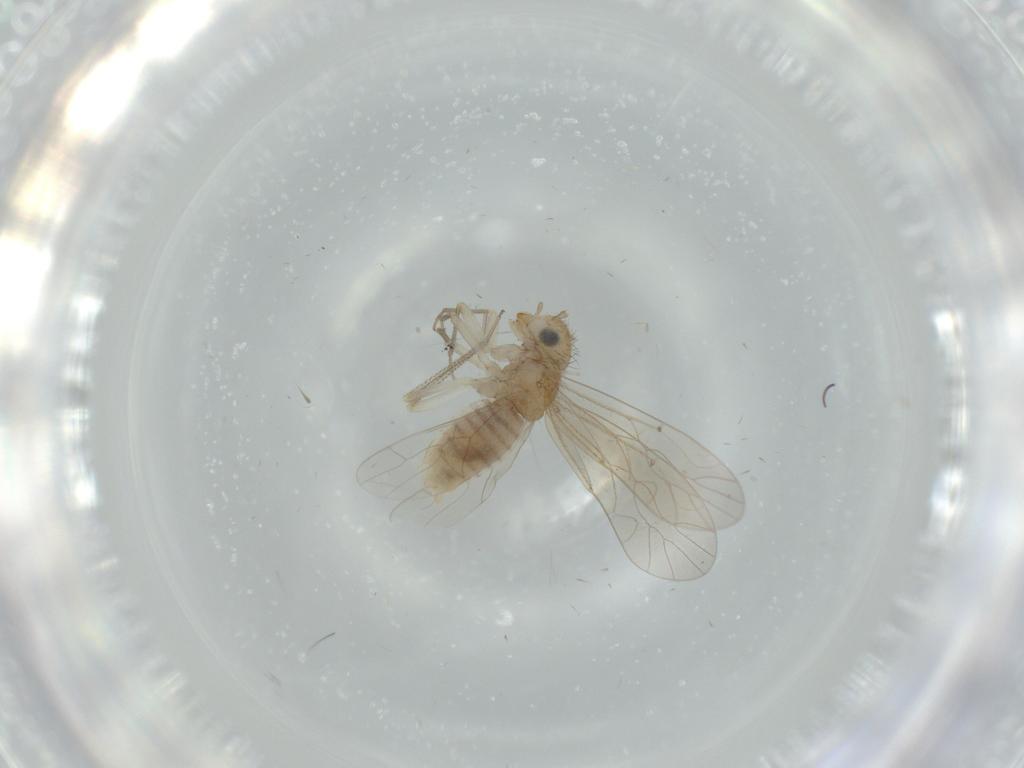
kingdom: Animalia
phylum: Arthropoda
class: Insecta
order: Psocodea
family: Caeciliusidae
